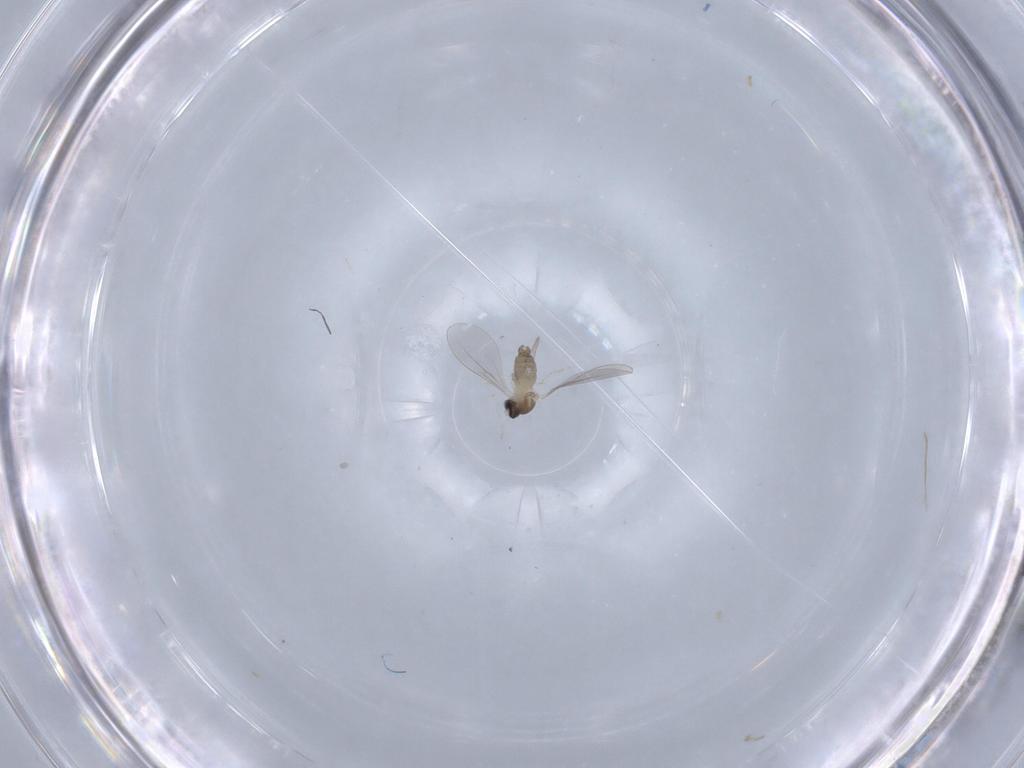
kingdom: Animalia
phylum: Arthropoda
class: Insecta
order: Diptera
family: Cecidomyiidae
